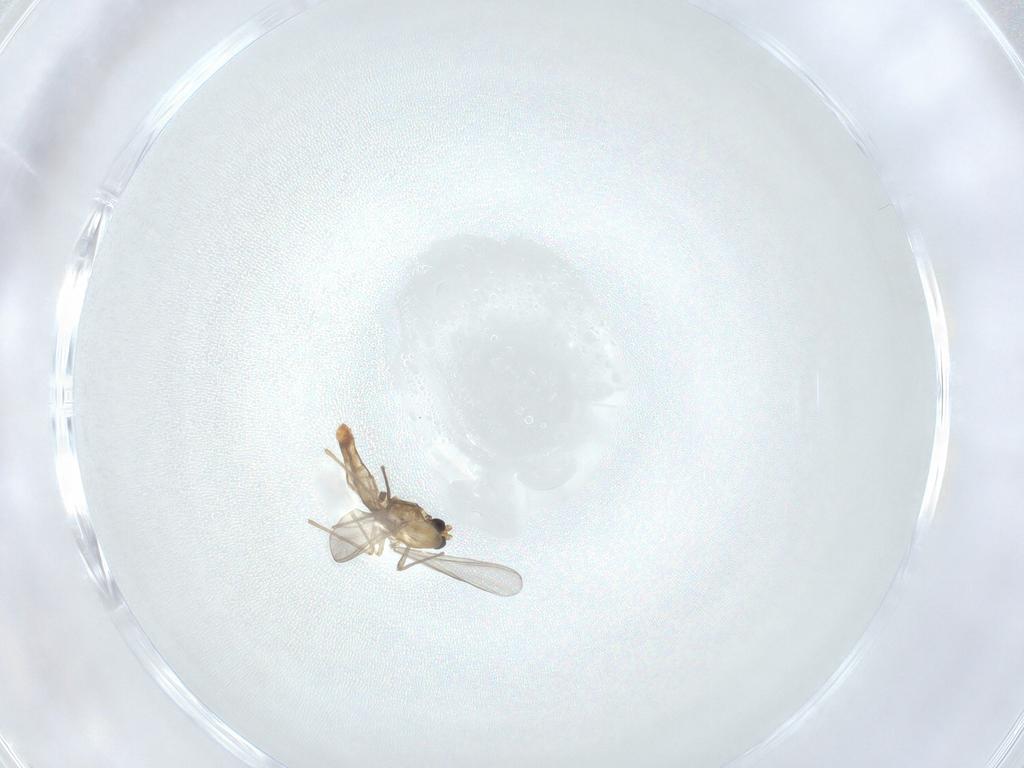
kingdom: Animalia
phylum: Arthropoda
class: Insecta
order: Diptera
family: Chironomidae
